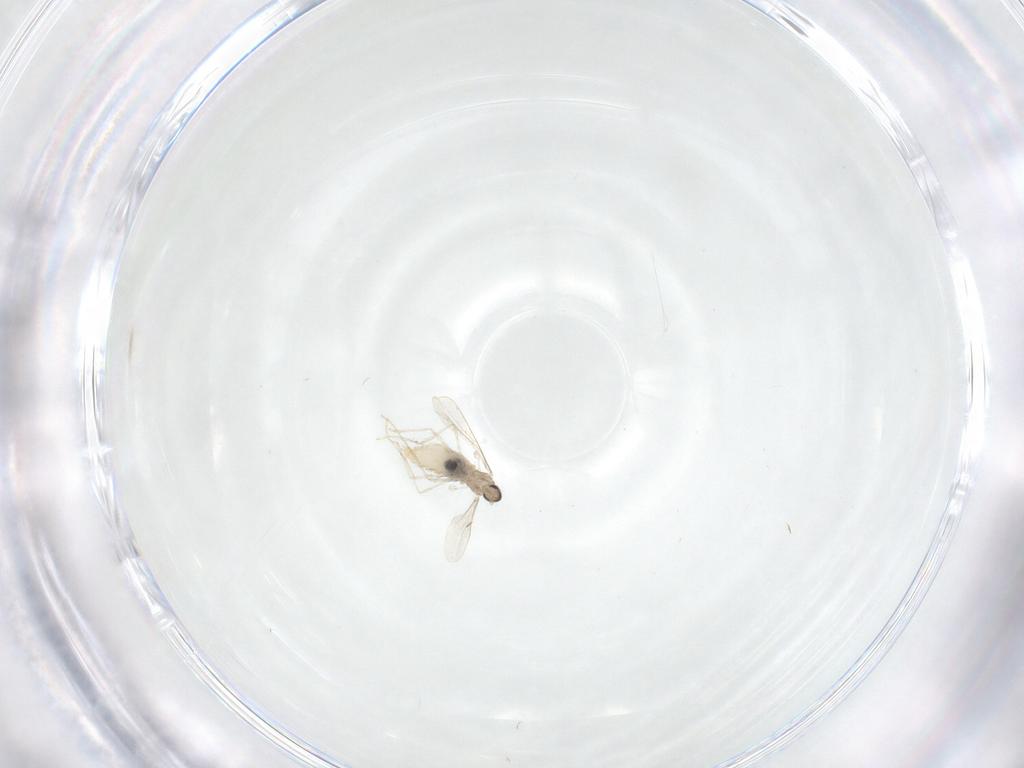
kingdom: Animalia
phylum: Arthropoda
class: Insecta
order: Diptera
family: Cecidomyiidae
